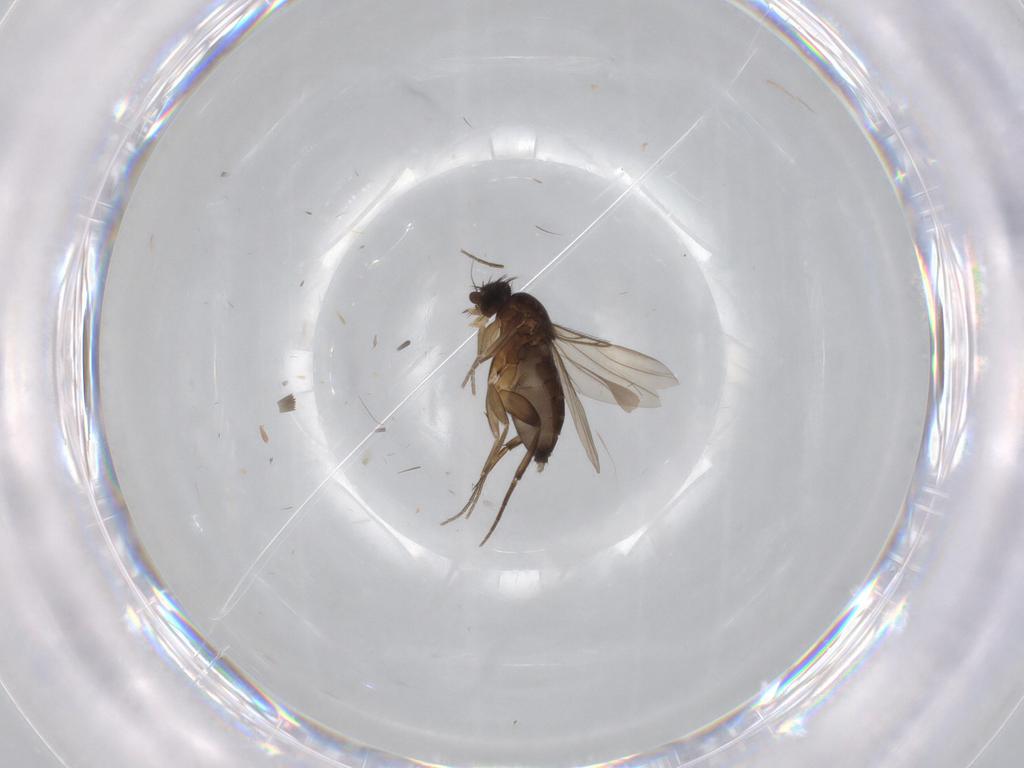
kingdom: Animalia
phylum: Arthropoda
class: Insecta
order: Diptera
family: Phoridae
